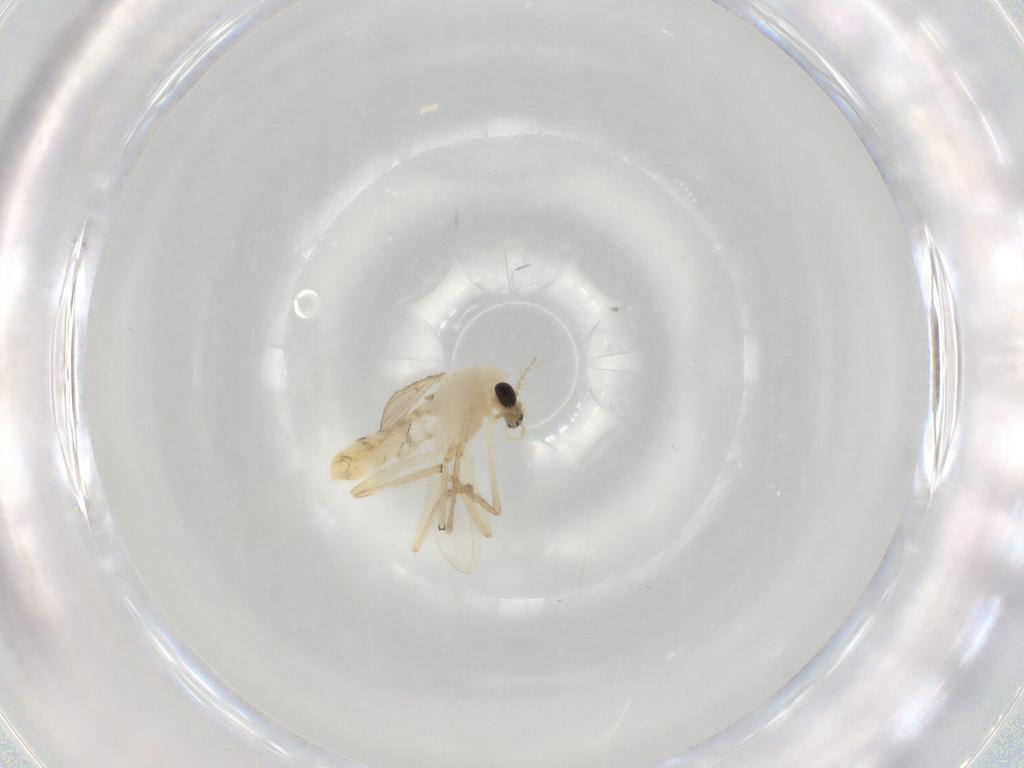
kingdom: Animalia
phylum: Arthropoda
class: Insecta
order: Diptera
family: Chironomidae
